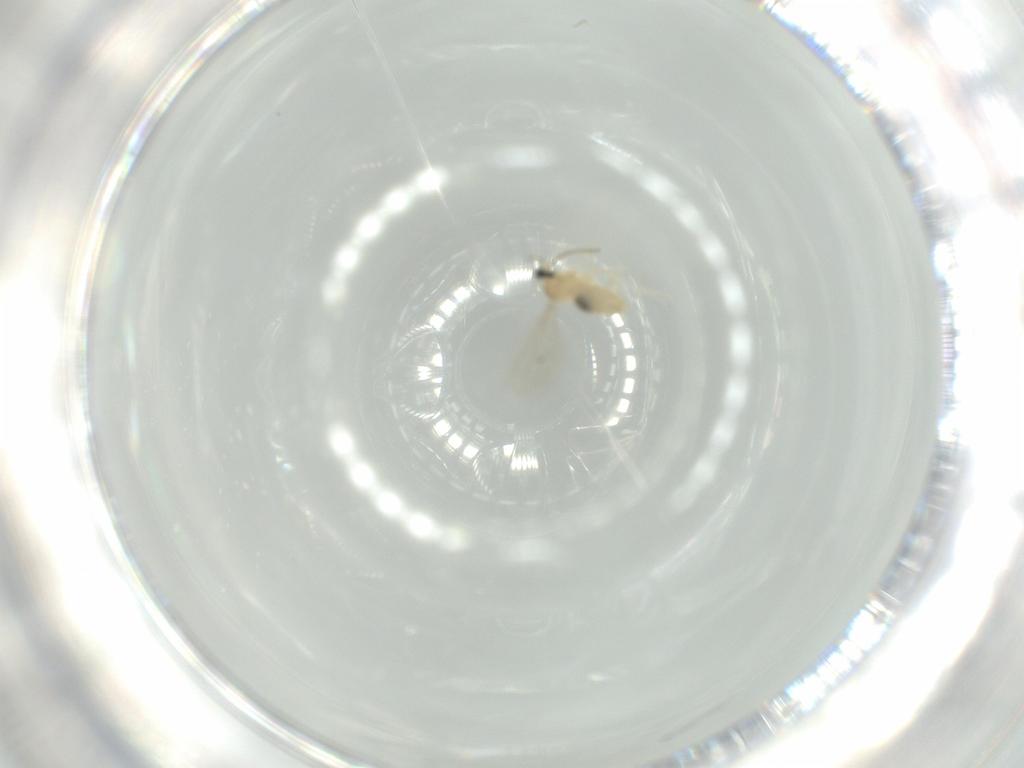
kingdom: Animalia
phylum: Arthropoda
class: Insecta
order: Diptera
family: Cecidomyiidae
